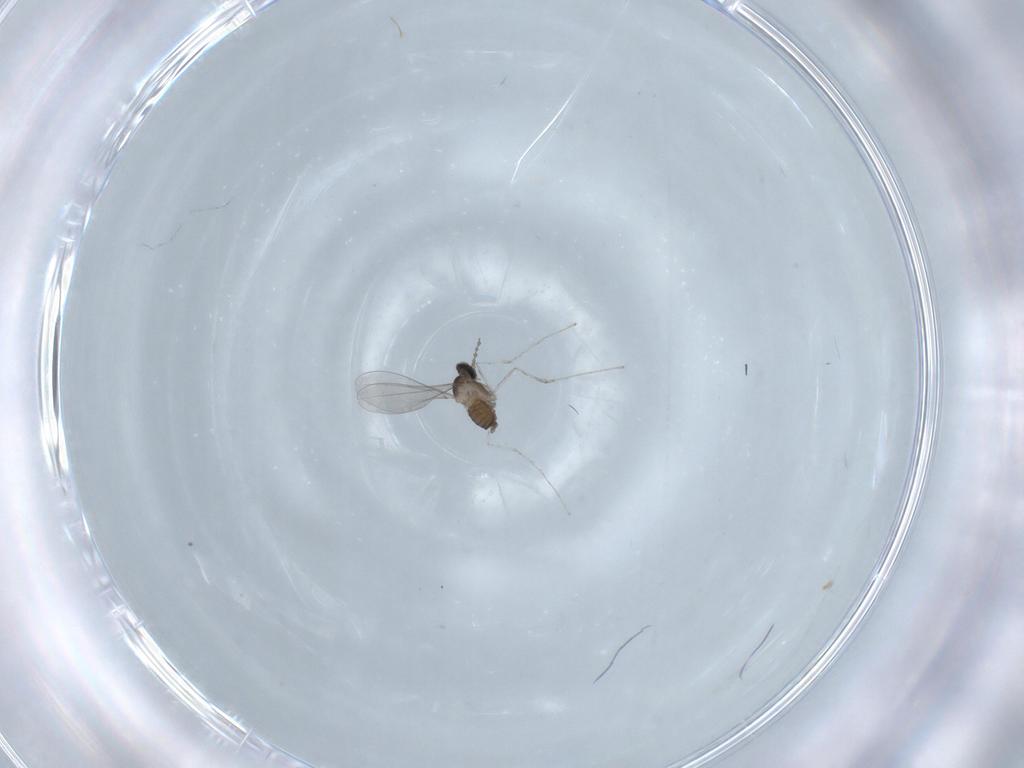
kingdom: Animalia
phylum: Arthropoda
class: Insecta
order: Diptera
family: Cecidomyiidae
